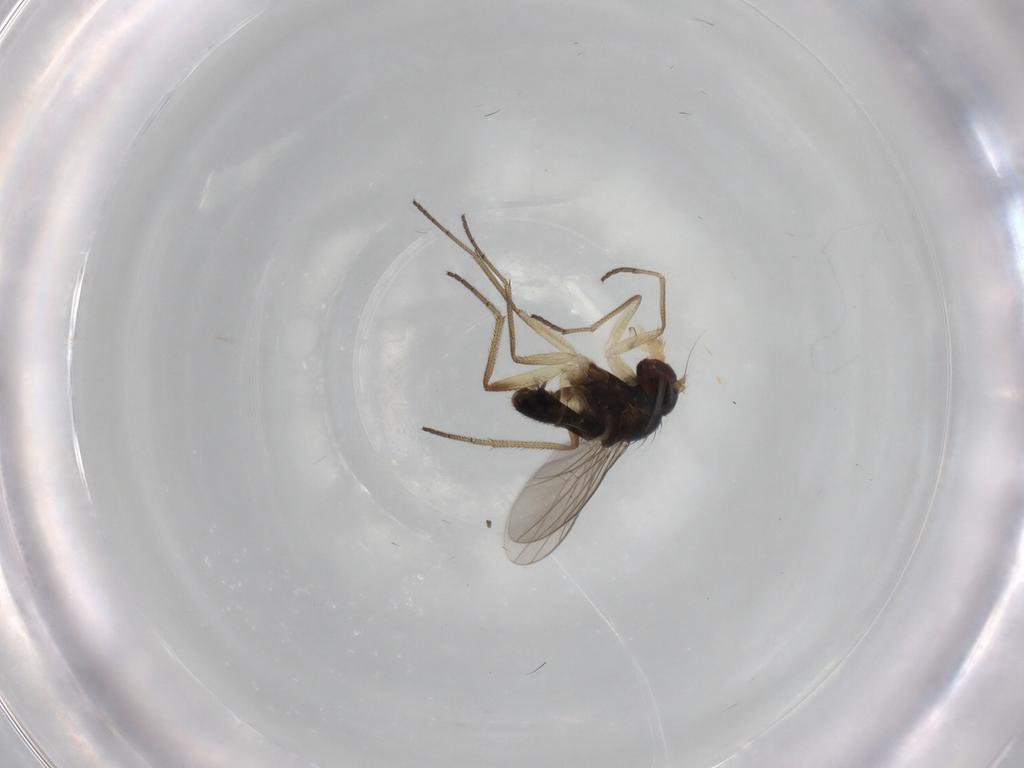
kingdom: Animalia
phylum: Arthropoda
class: Insecta
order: Diptera
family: Dolichopodidae
